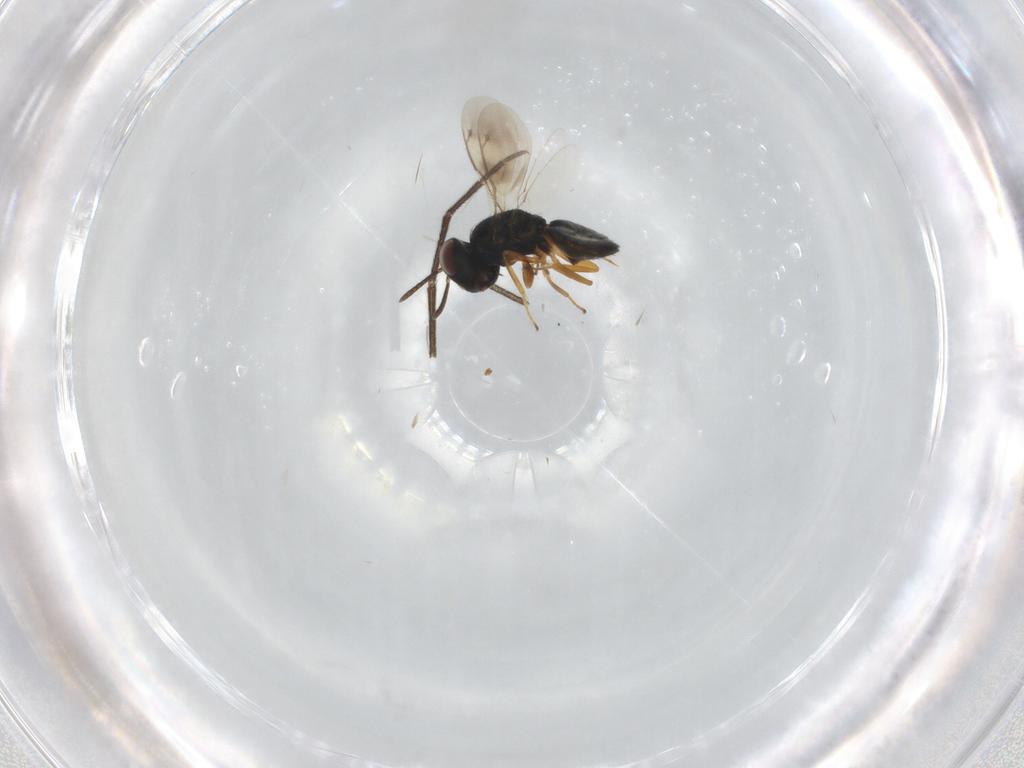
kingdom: Animalia
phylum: Arthropoda
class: Insecta
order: Hymenoptera
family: Pteromalidae
